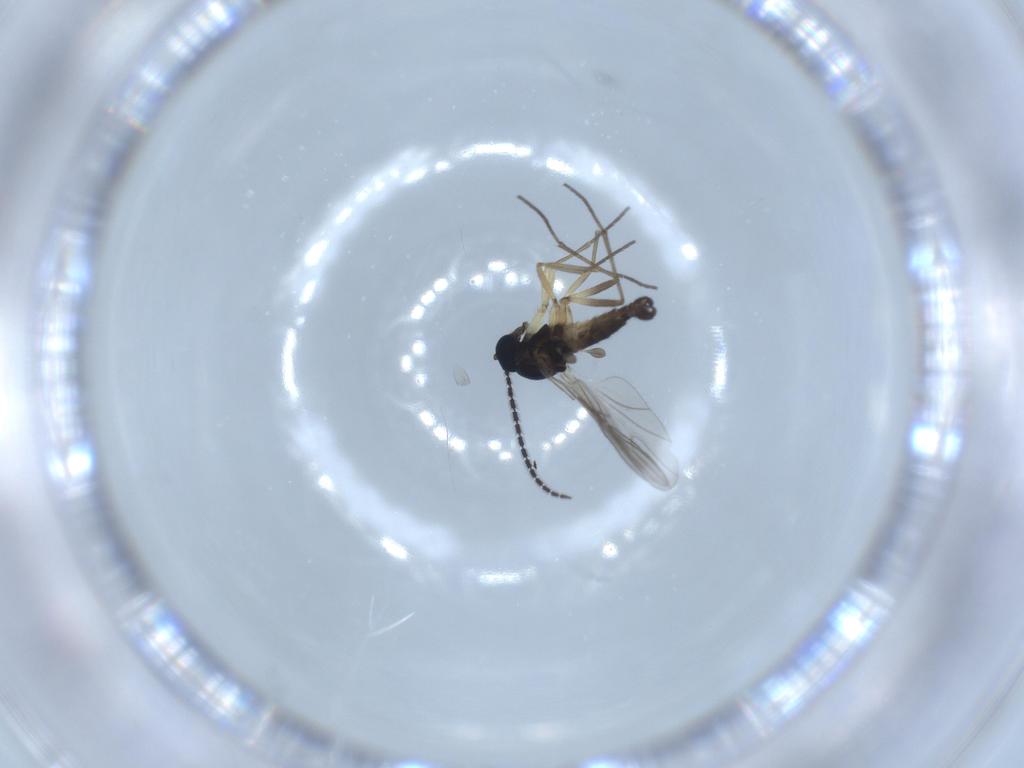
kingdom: Animalia
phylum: Arthropoda
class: Insecta
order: Diptera
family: Sciaridae
